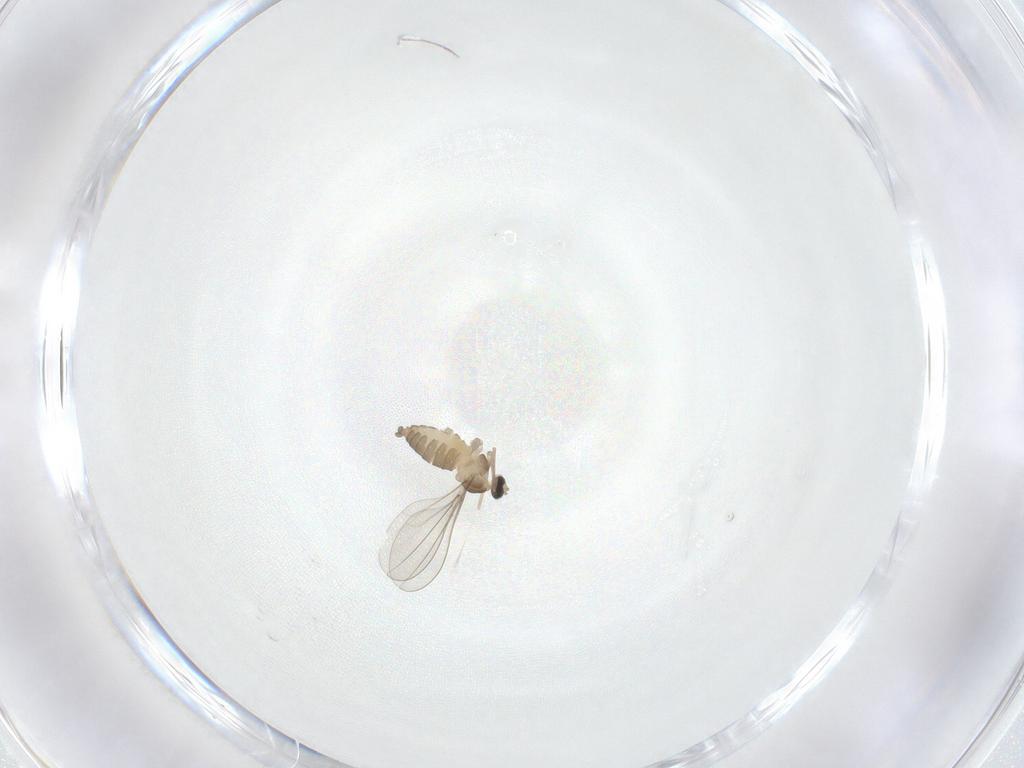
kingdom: Animalia
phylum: Arthropoda
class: Insecta
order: Diptera
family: Cecidomyiidae
